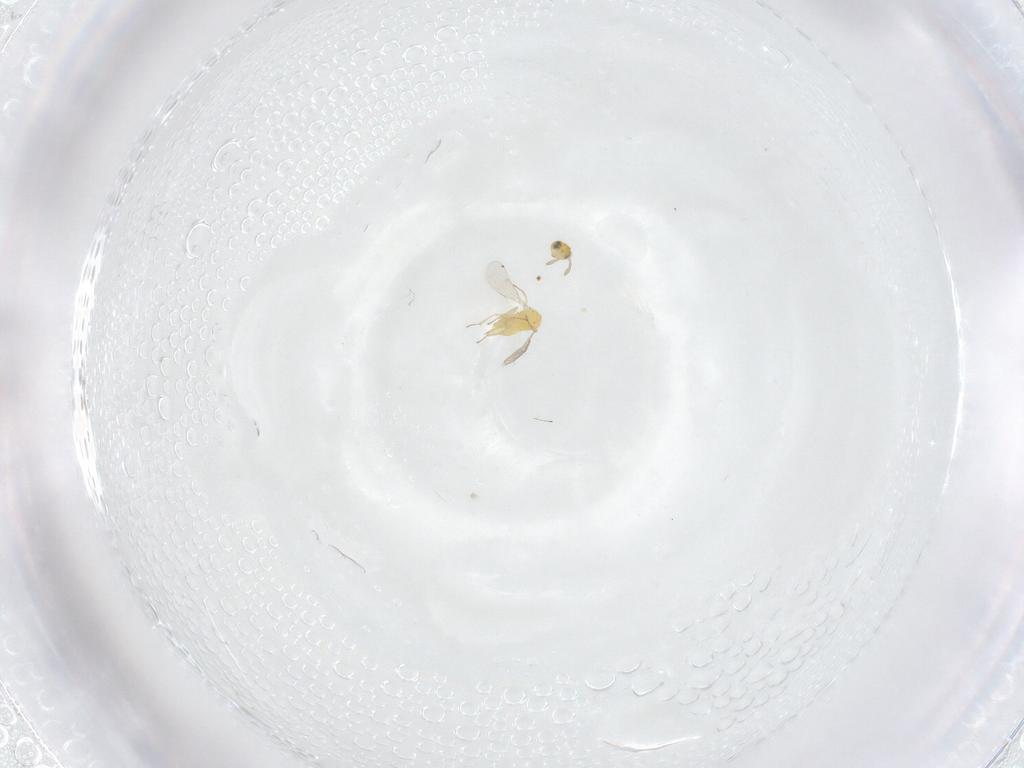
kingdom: Animalia
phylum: Arthropoda
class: Insecta
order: Hymenoptera
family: Aphelinidae
